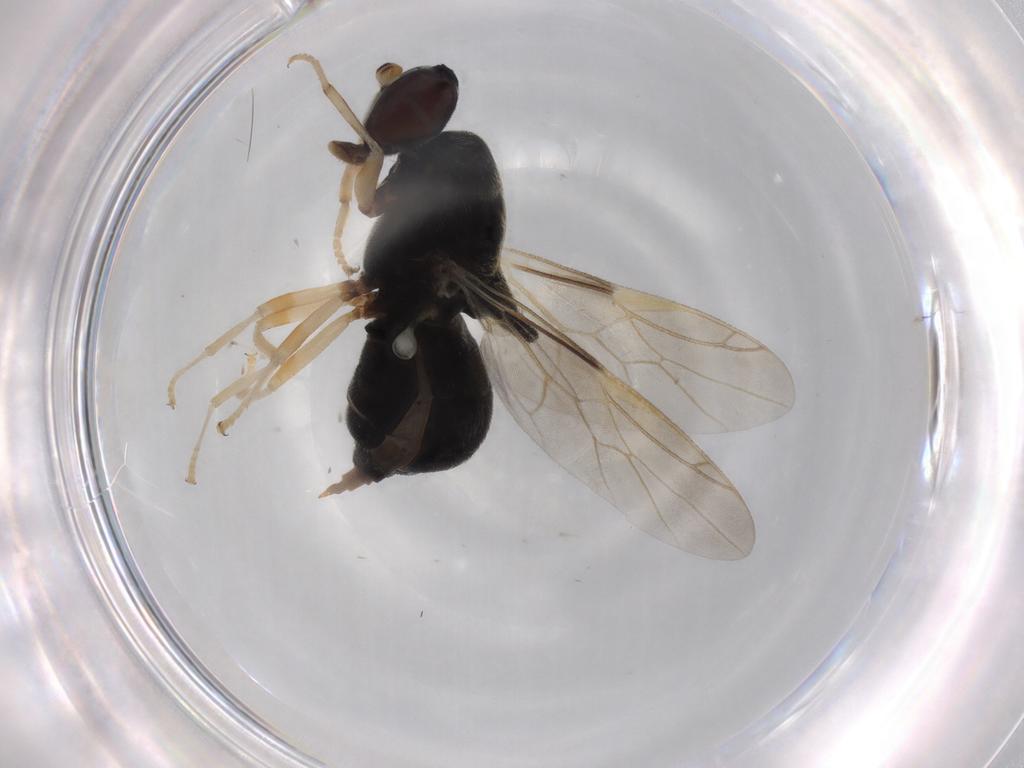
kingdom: Animalia
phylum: Arthropoda
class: Insecta
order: Diptera
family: Stratiomyidae
